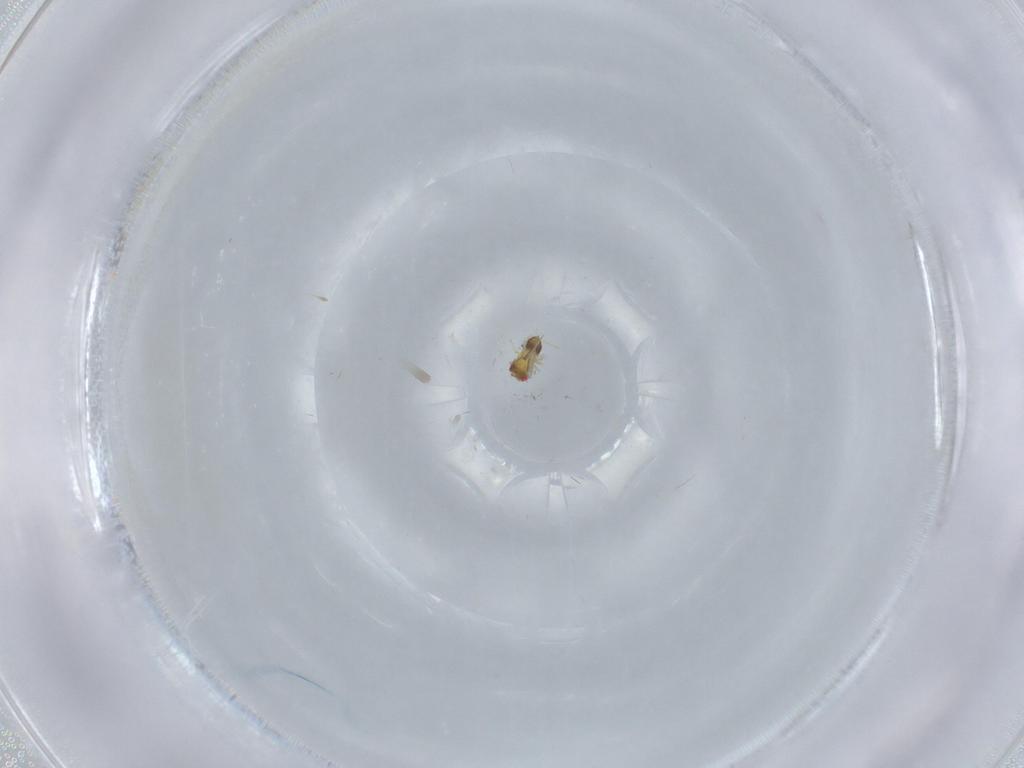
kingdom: Animalia
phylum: Arthropoda
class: Insecta
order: Hymenoptera
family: Trichogrammatidae
